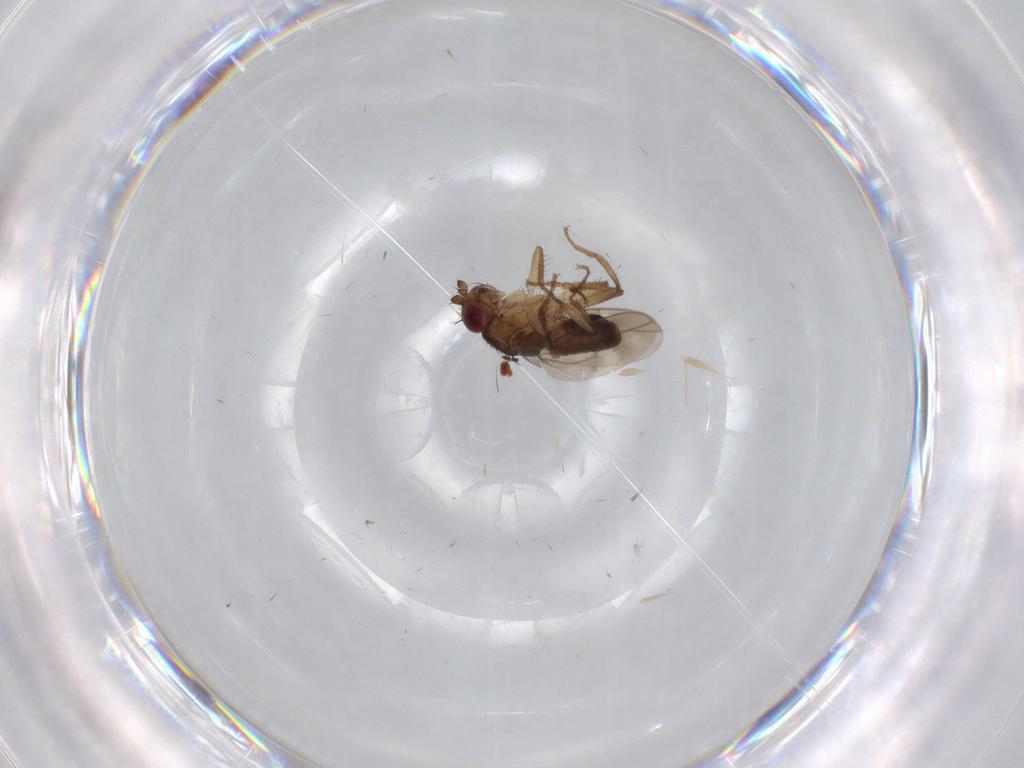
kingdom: Animalia
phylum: Arthropoda
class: Insecta
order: Diptera
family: Sphaeroceridae
